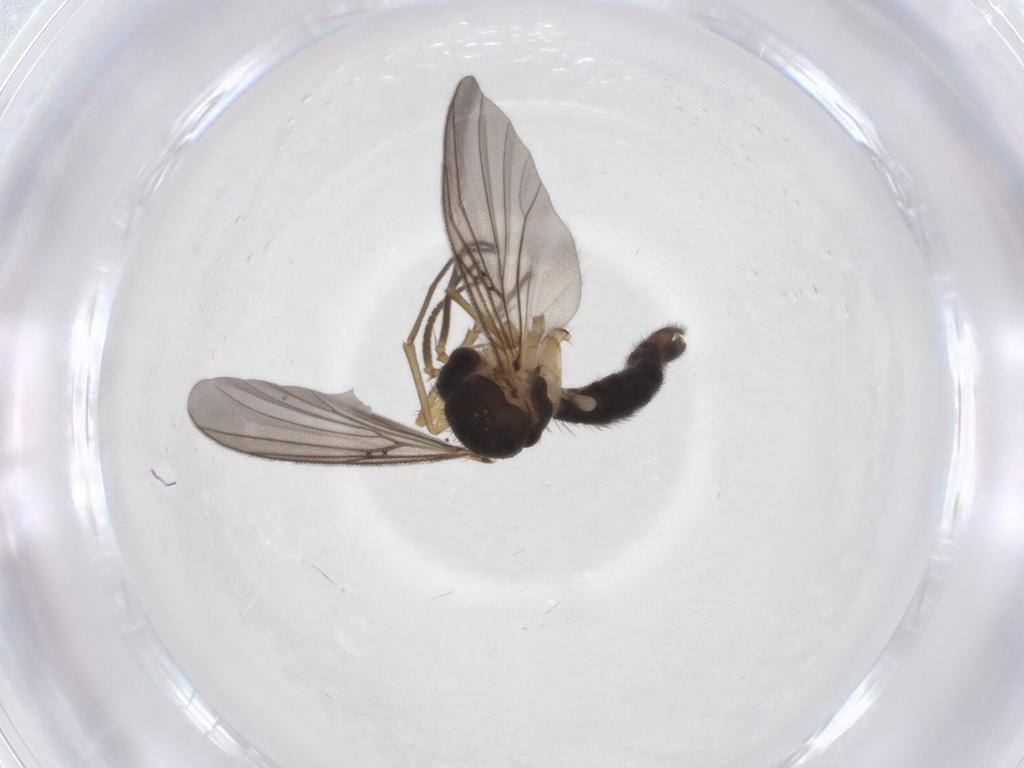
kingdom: Animalia
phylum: Arthropoda
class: Insecta
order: Diptera
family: Mycetophilidae
